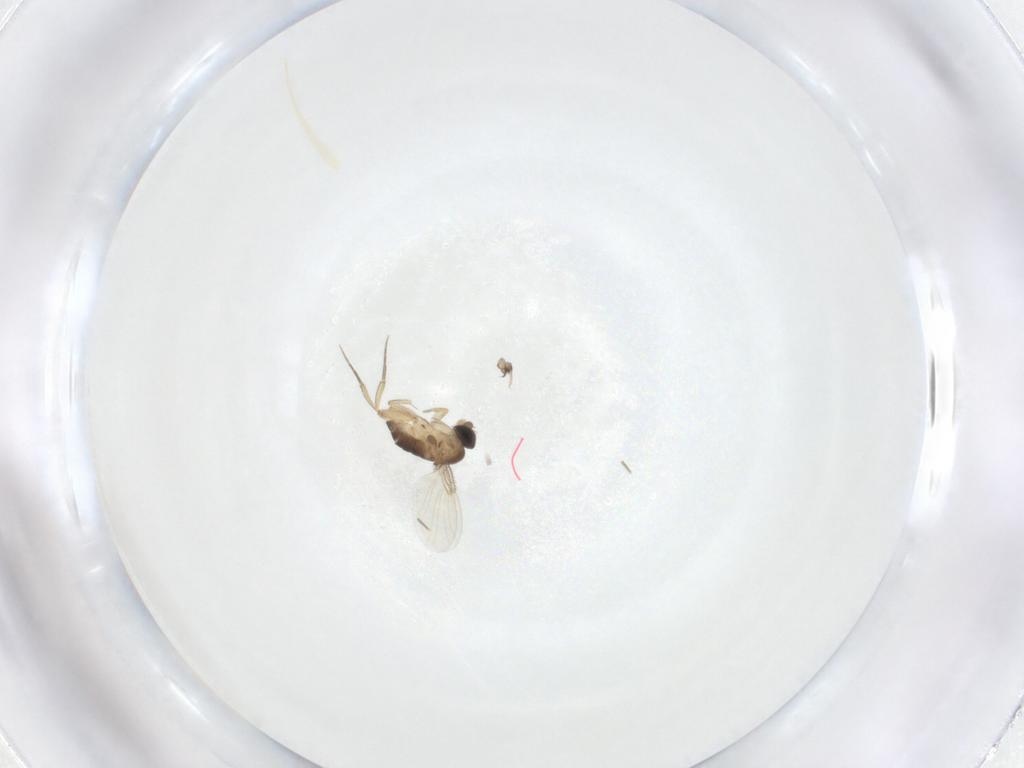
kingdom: Animalia
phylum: Arthropoda
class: Insecta
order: Diptera
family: Phoridae
